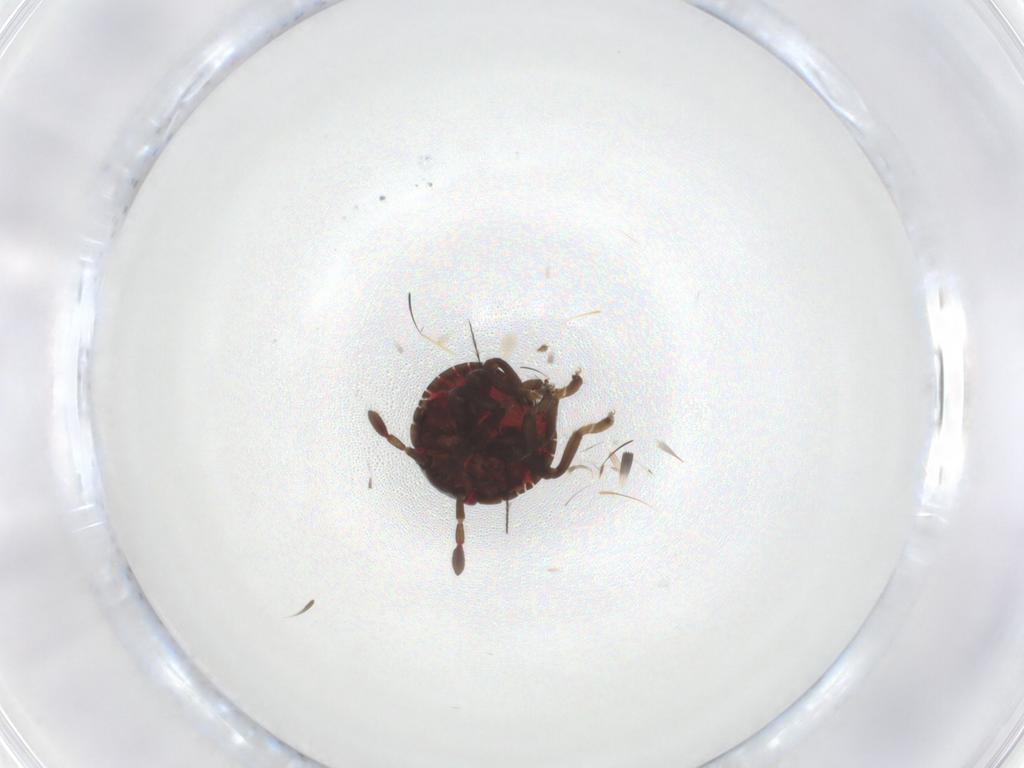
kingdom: Animalia
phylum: Arthropoda
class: Insecta
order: Hemiptera
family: Pentatomidae
